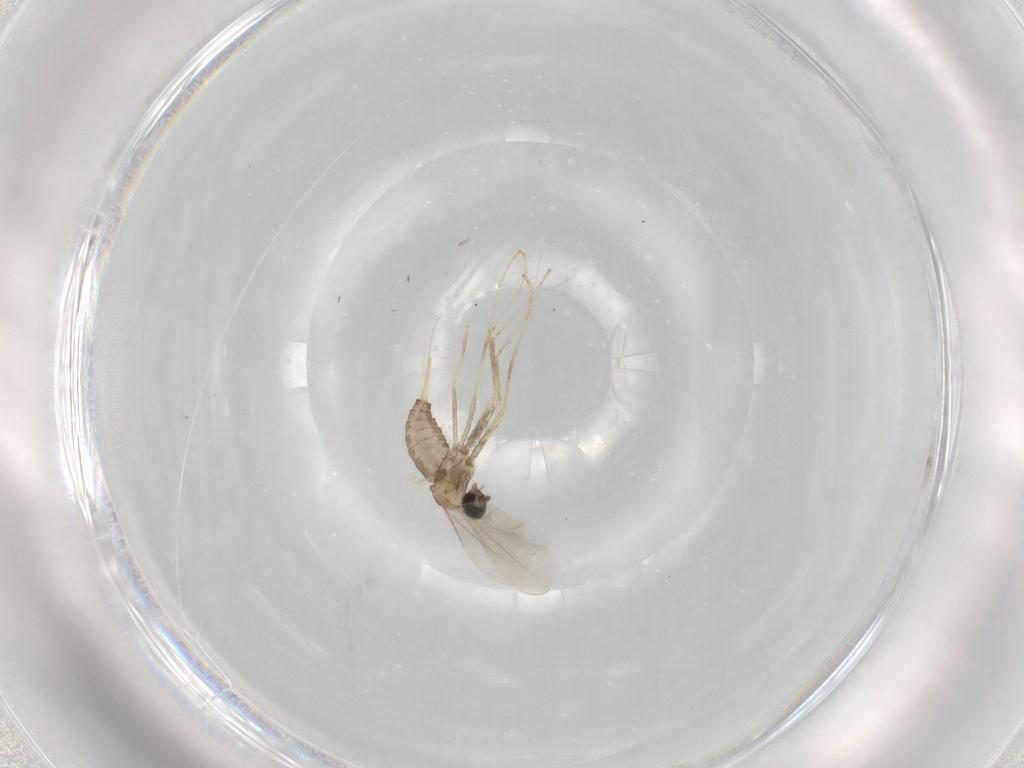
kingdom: Animalia
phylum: Arthropoda
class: Insecta
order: Diptera
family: Cecidomyiidae
